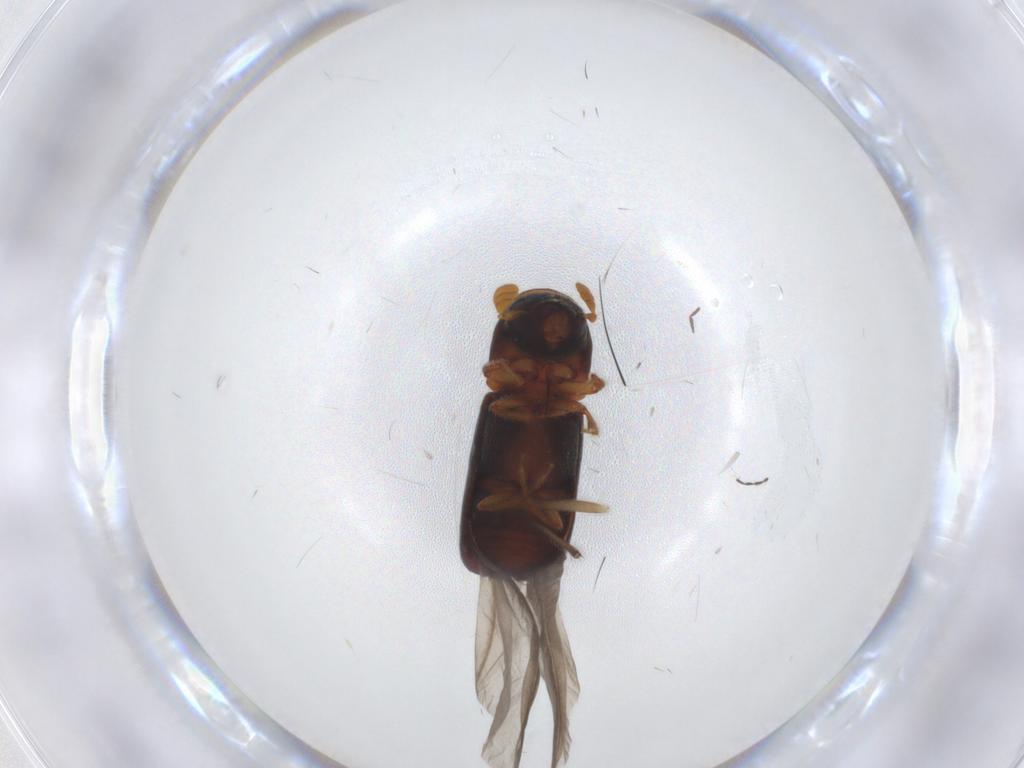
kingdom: Animalia
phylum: Arthropoda
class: Insecta
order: Coleoptera
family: Curculionidae
